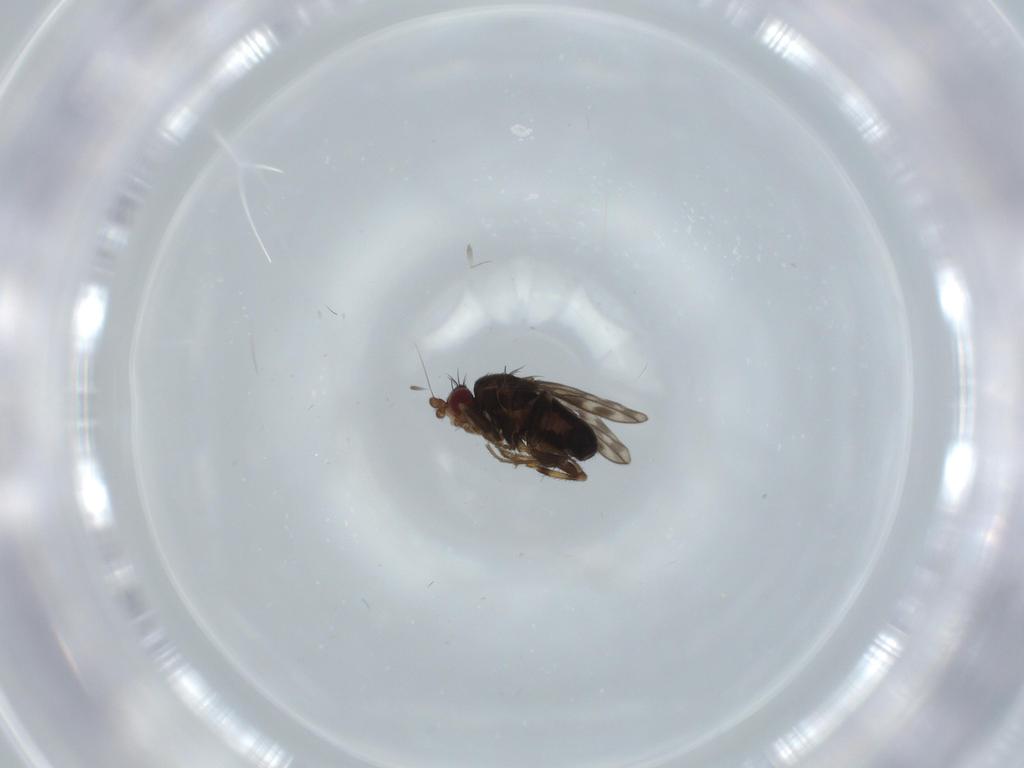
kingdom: Animalia
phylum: Arthropoda
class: Insecta
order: Diptera
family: Sphaeroceridae
